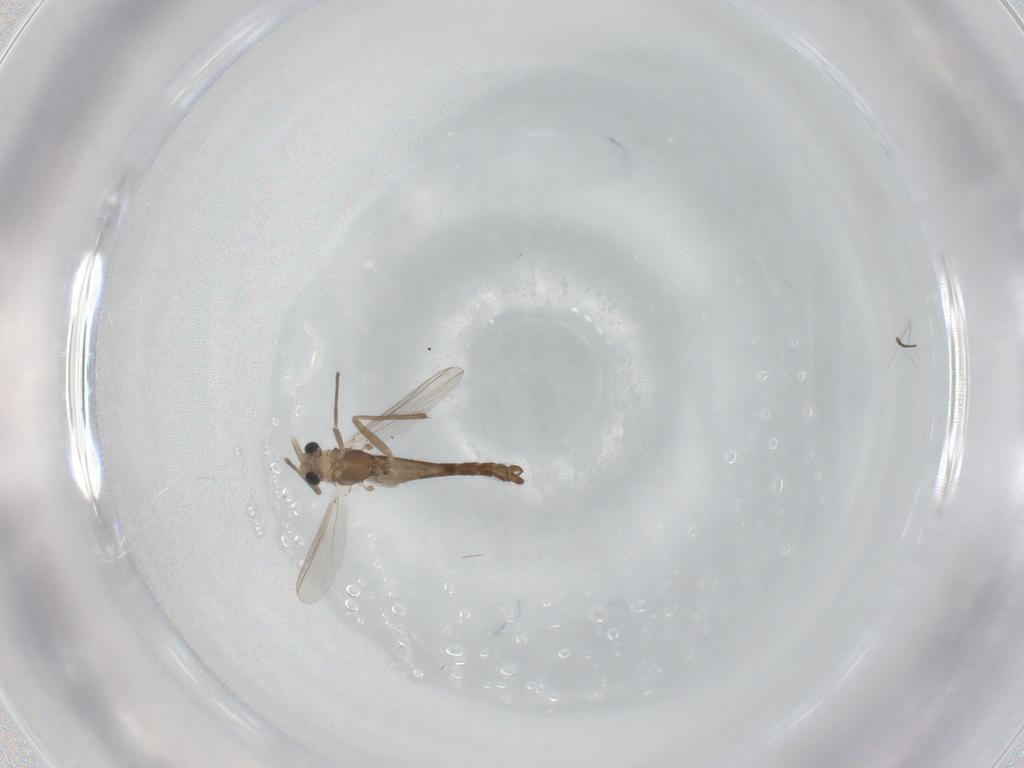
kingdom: Animalia
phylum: Arthropoda
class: Insecta
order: Diptera
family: Chironomidae
